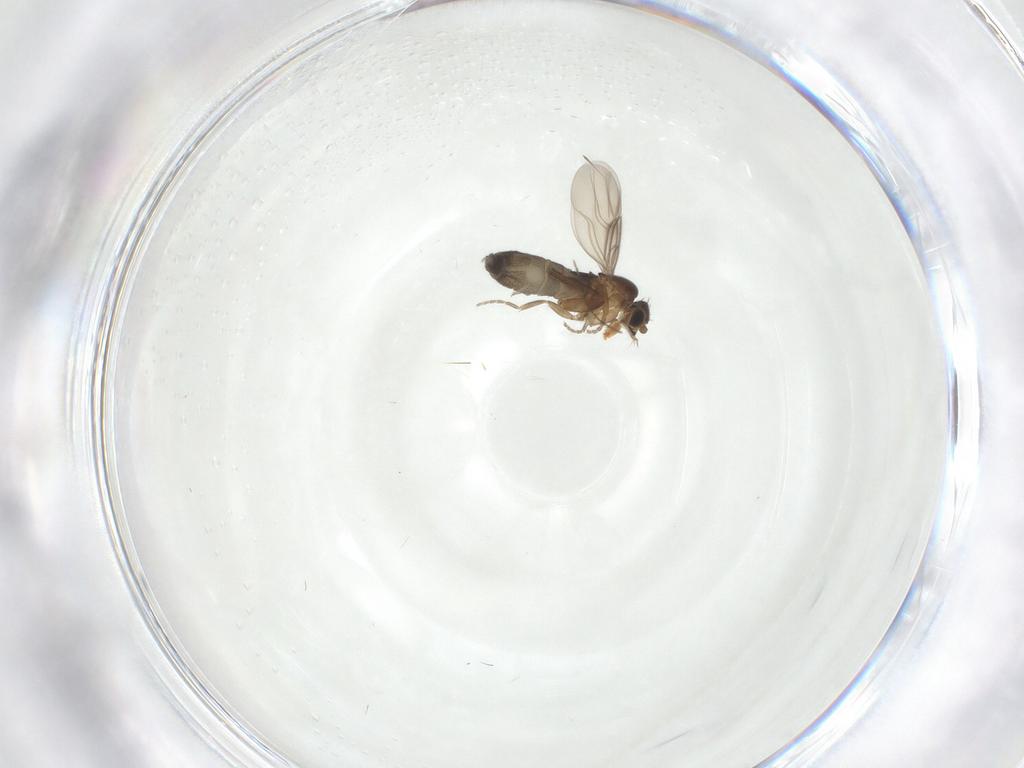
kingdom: Animalia
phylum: Arthropoda
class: Insecta
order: Diptera
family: Phoridae
